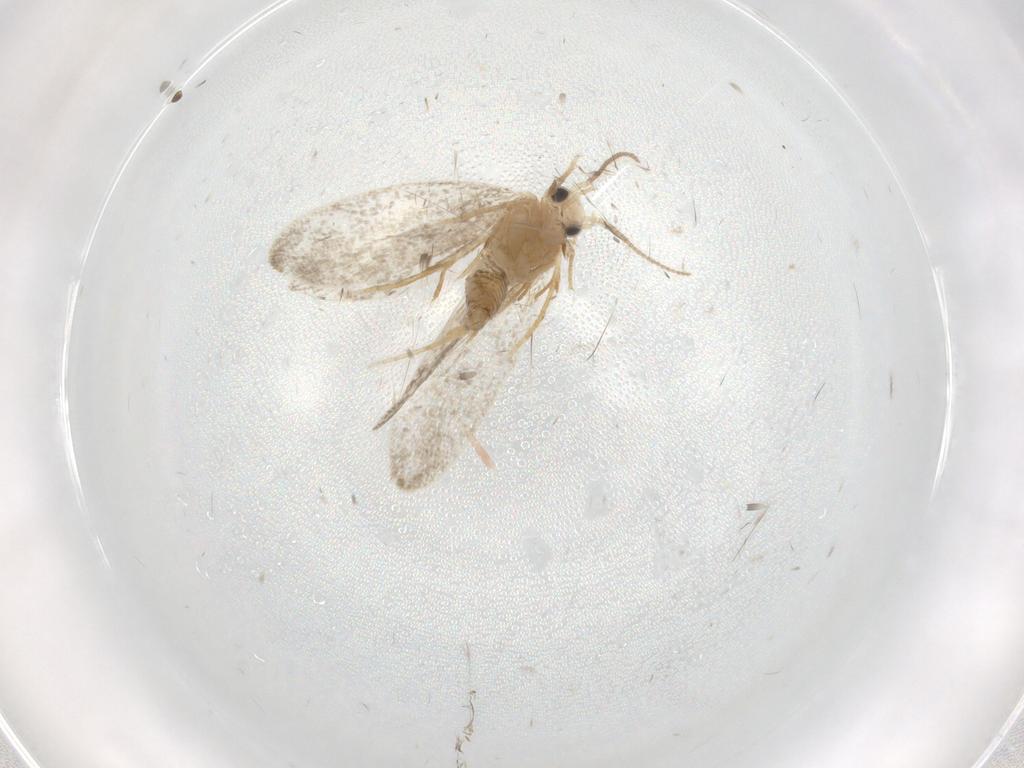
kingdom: Animalia
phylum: Arthropoda
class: Insecta
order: Lepidoptera
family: Psychidae
